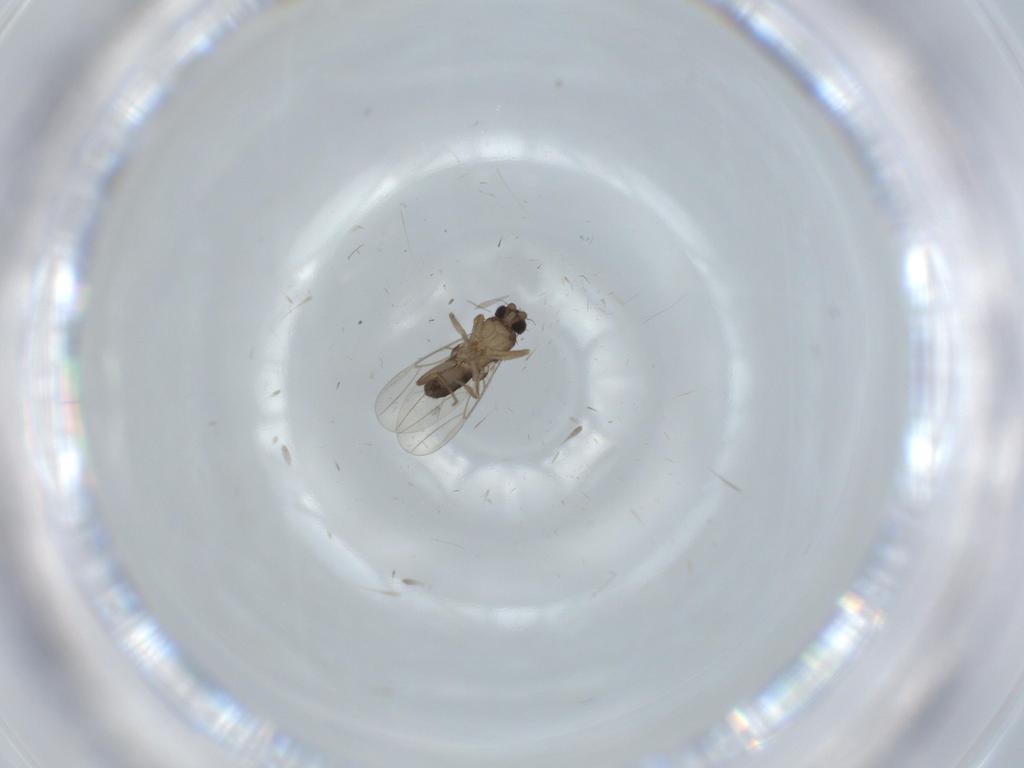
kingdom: Animalia
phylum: Arthropoda
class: Insecta
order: Diptera
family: Phoridae
